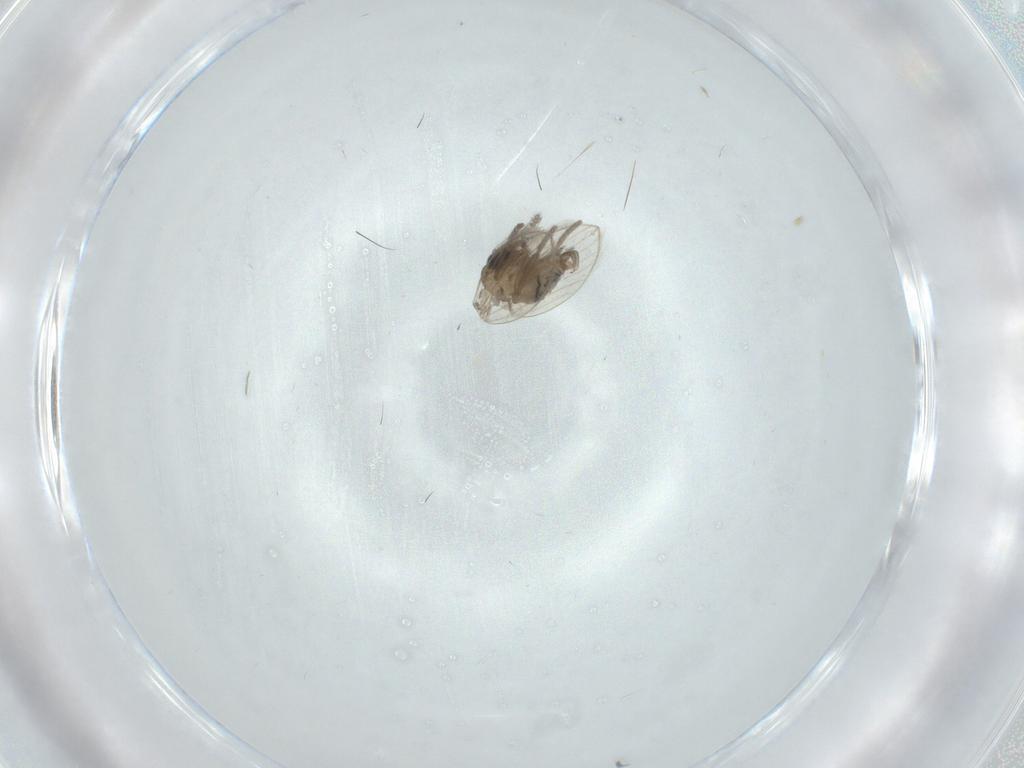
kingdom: Animalia
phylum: Arthropoda
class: Insecta
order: Diptera
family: Psychodidae
